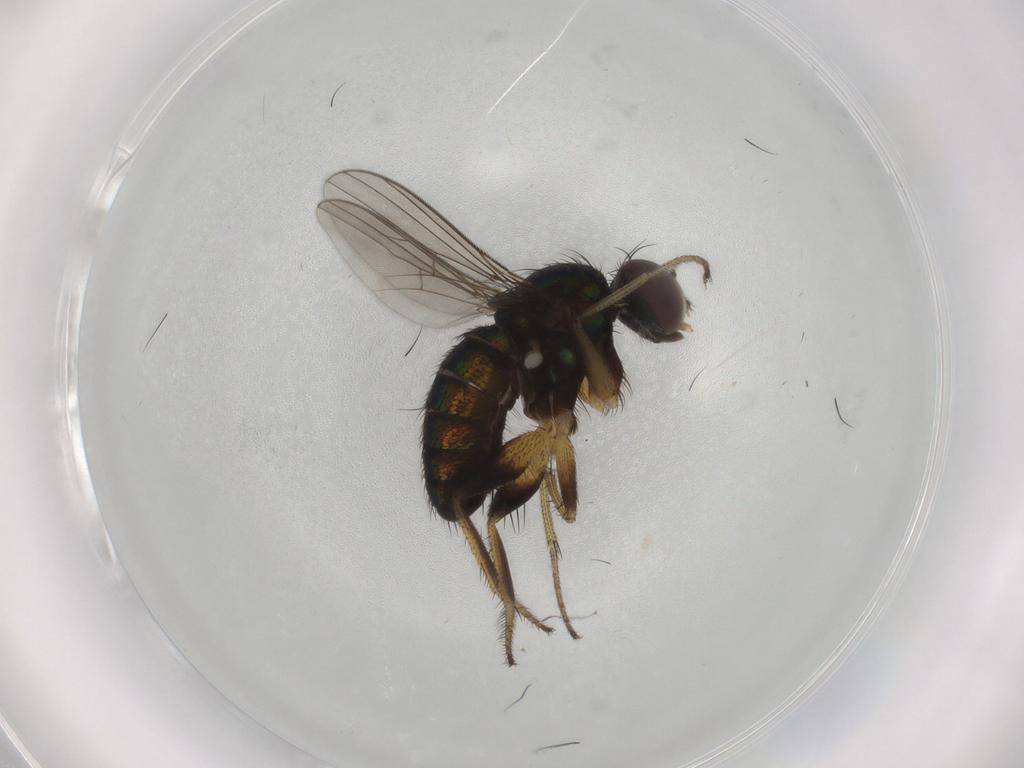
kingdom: Animalia
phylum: Arthropoda
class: Insecta
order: Diptera
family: Dolichopodidae
